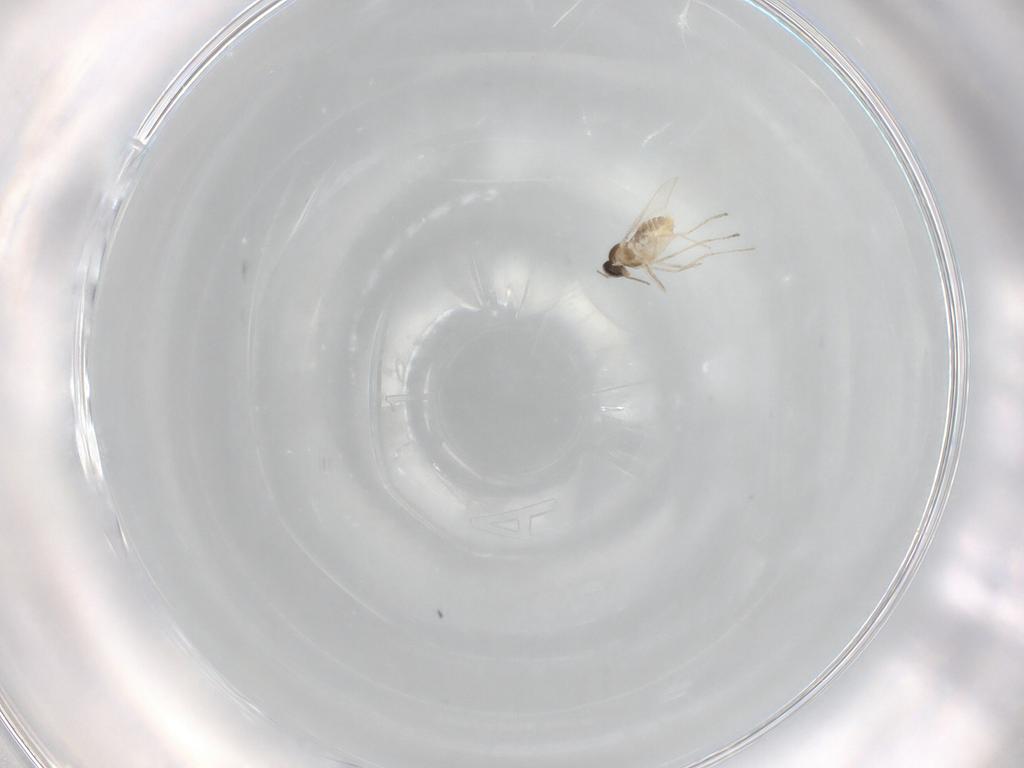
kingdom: Animalia
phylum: Arthropoda
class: Insecta
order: Diptera
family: Cecidomyiidae
